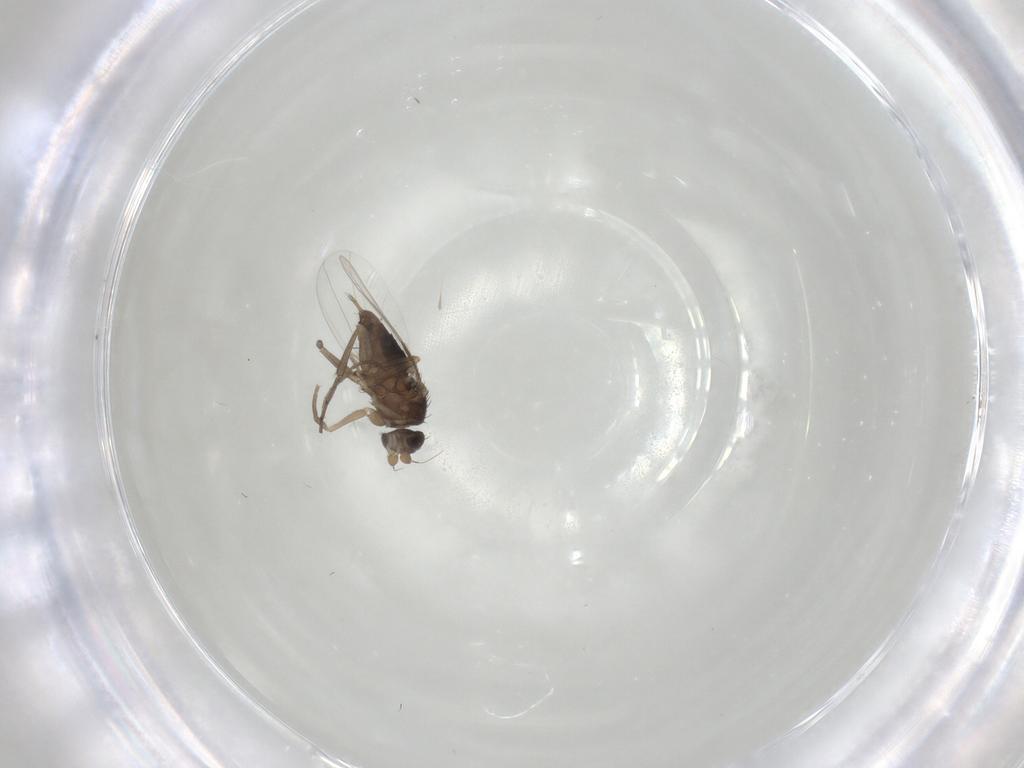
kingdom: Animalia
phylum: Arthropoda
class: Insecta
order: Diptera
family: Phoridae
